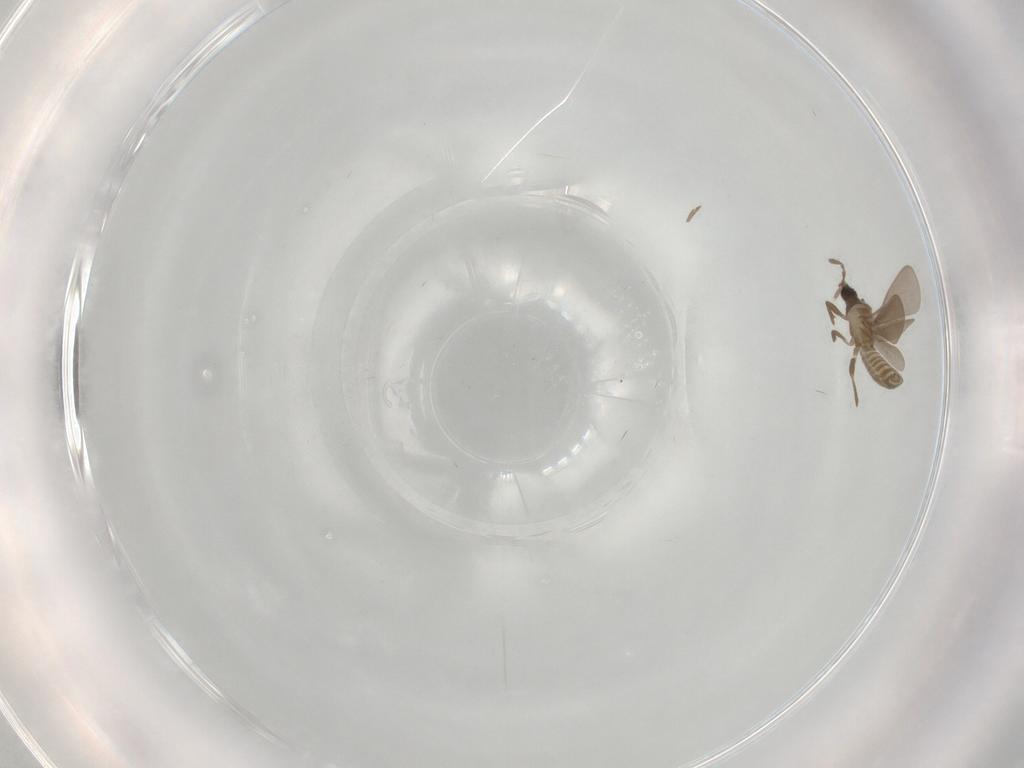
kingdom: Animalia
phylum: Arthropoda
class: Insecta
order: Hemiptera
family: Enicocephalidae
